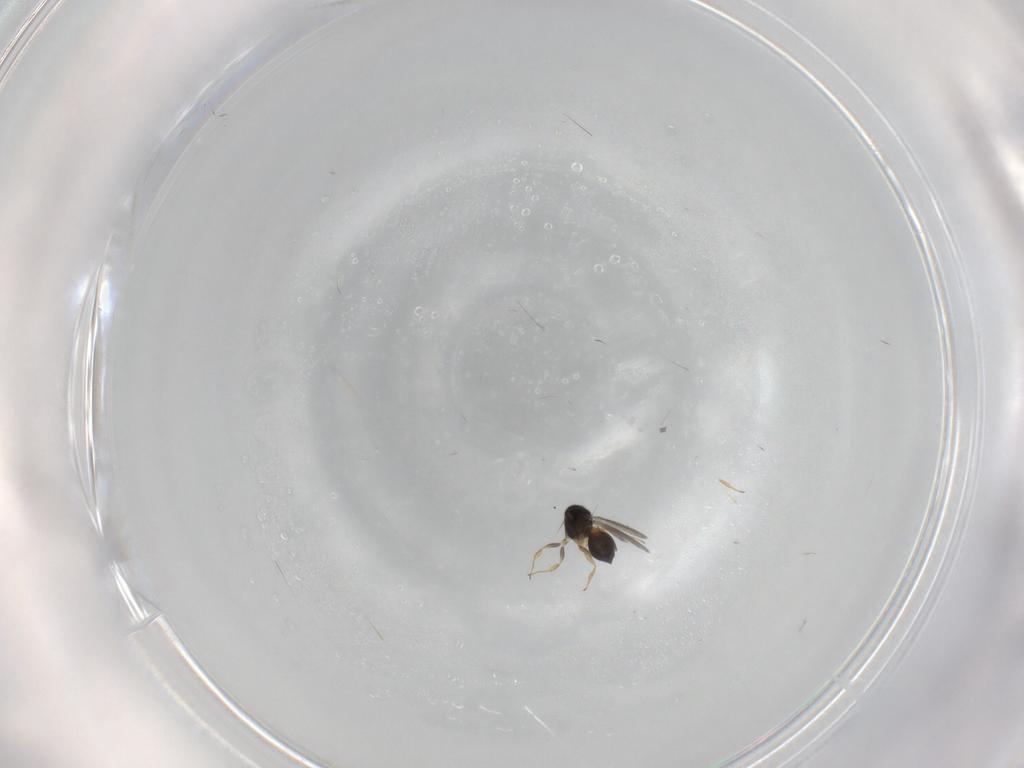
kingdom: Animalia
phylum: Arthropoda
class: Insecta
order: Hymenoptera
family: Scelionidae
